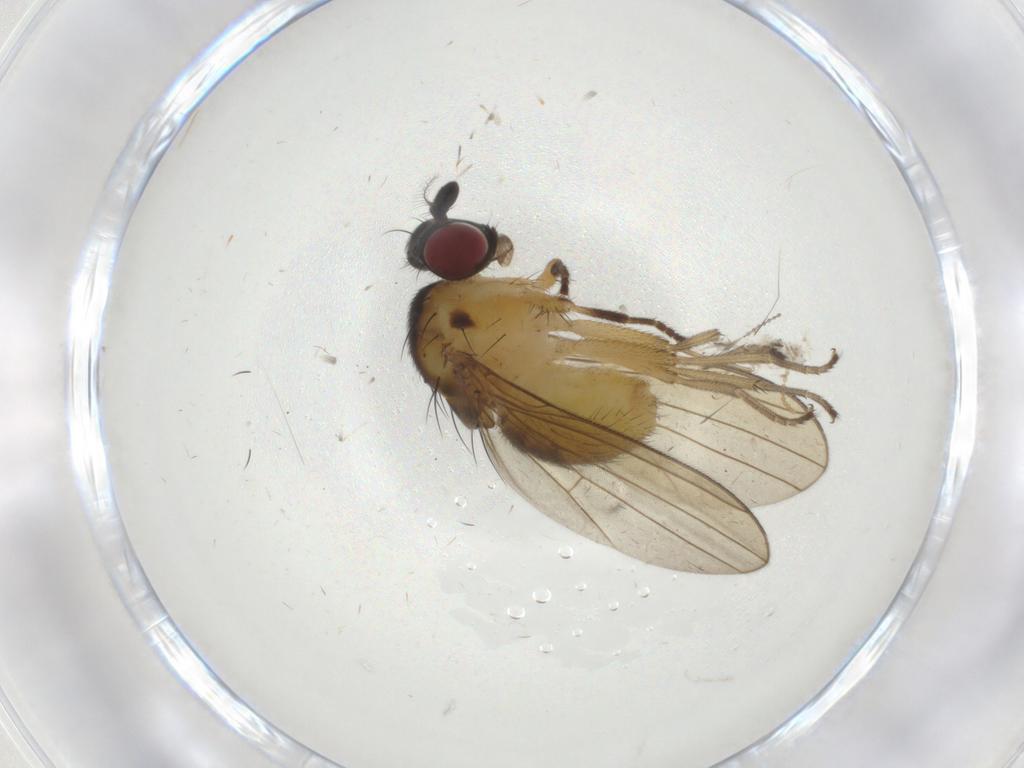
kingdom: Animalia
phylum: Arthropoda
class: Insecta
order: Diptera
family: Lauxaniidae
